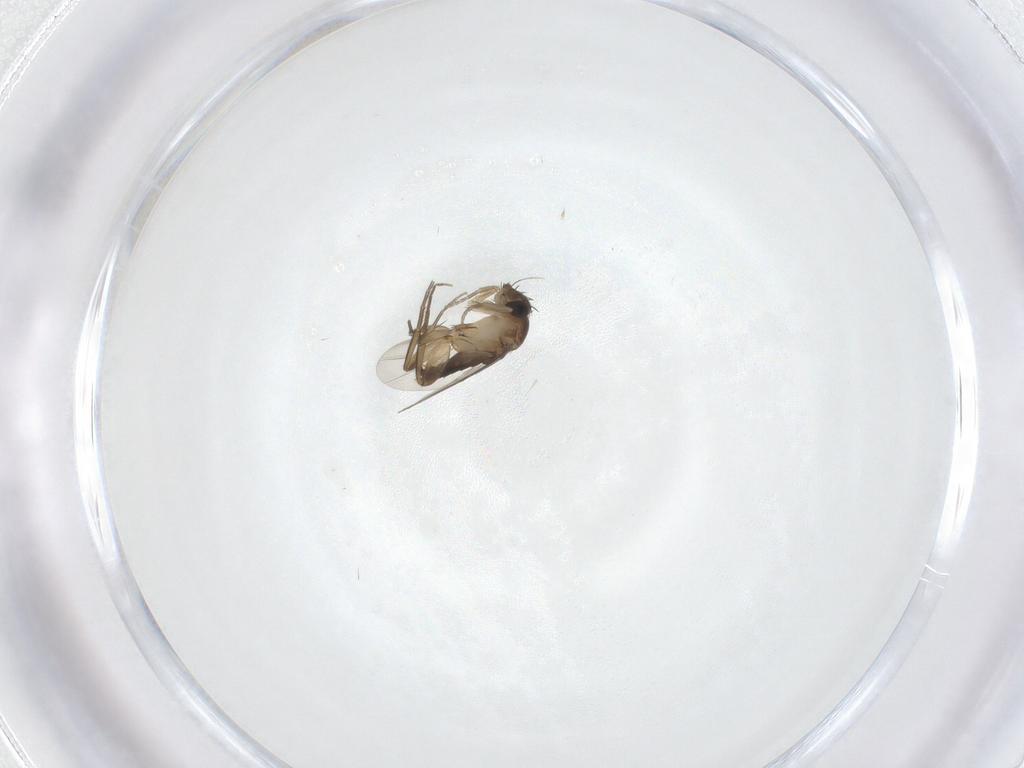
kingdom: Animalia
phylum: Arthropoda
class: Insecta
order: Diptera
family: Phoridae
